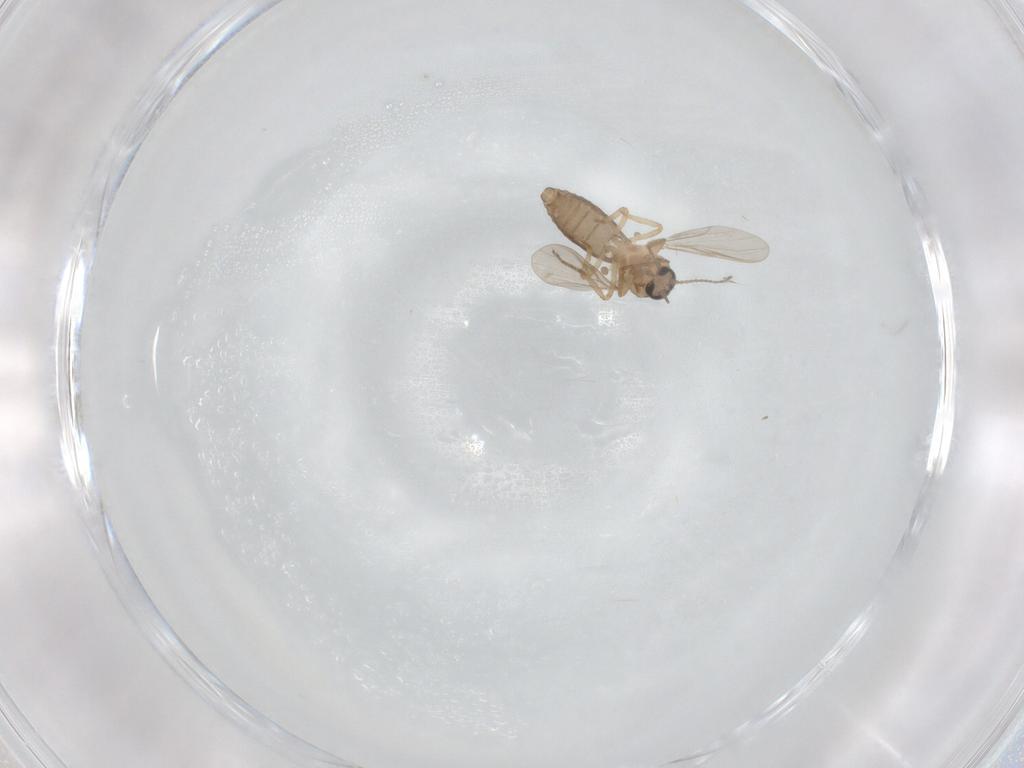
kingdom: Animalia
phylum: Arthropoda
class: Insecta
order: Diptera
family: Ceratopogonidae
